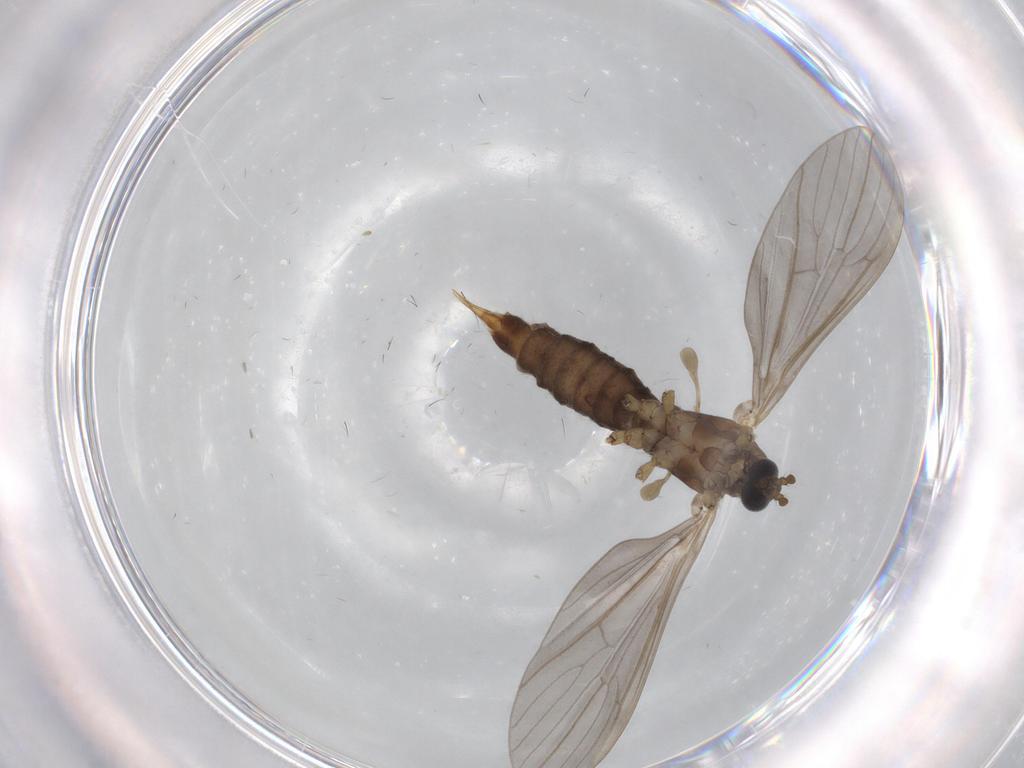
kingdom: Animalia
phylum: Arthropoda
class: Insecta
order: Diptera
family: Limoniidae
